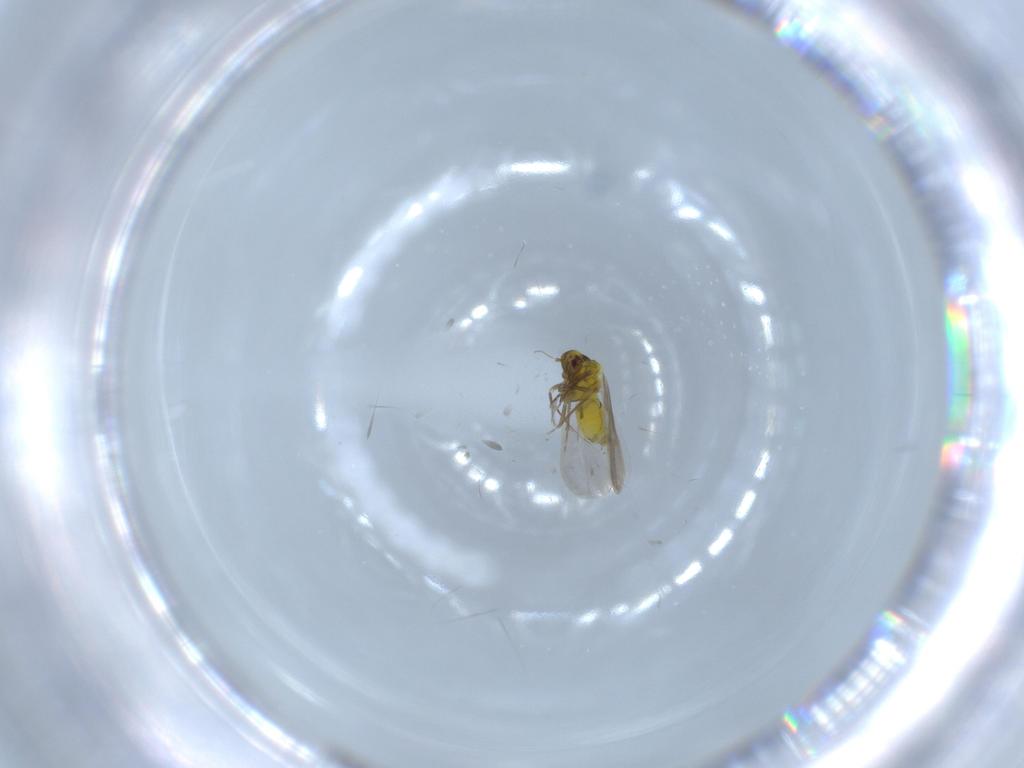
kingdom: Animalia
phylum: Arthropoda
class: Insecta
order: Hemiptera
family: Aleyrodidae
